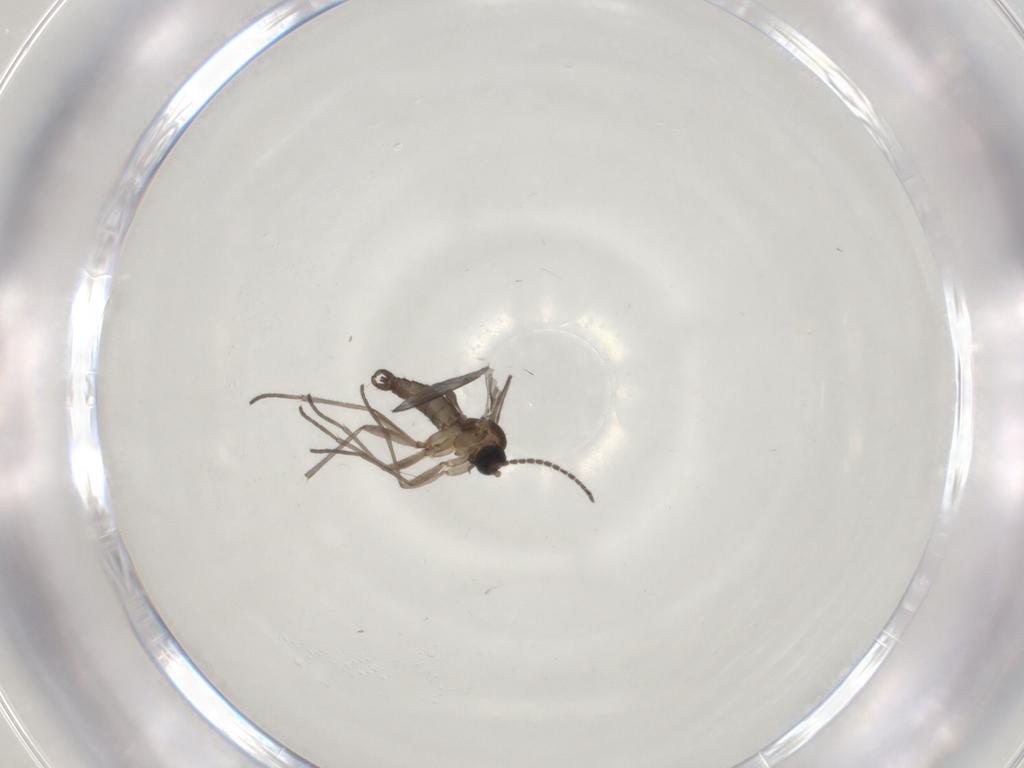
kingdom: Animalia
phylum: Arthropoda
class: Insecta
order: Diptera
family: Chironomidae
